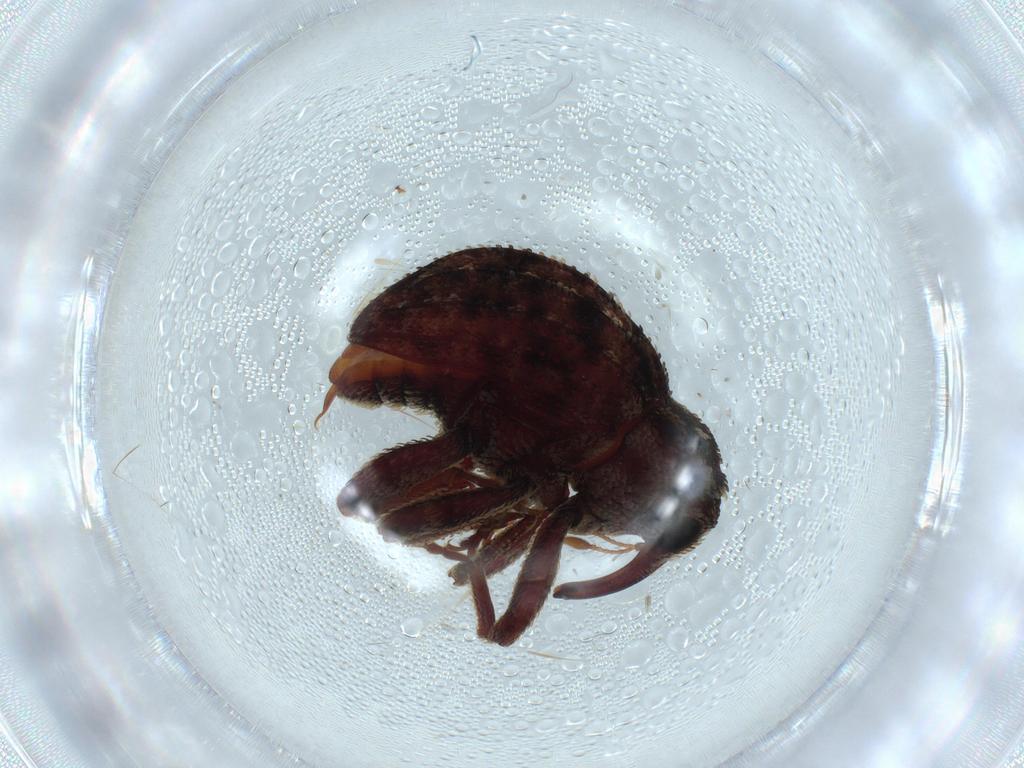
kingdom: Animalia
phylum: Arthropoda
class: Insecta
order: Coleoptera
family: Curculionidae
